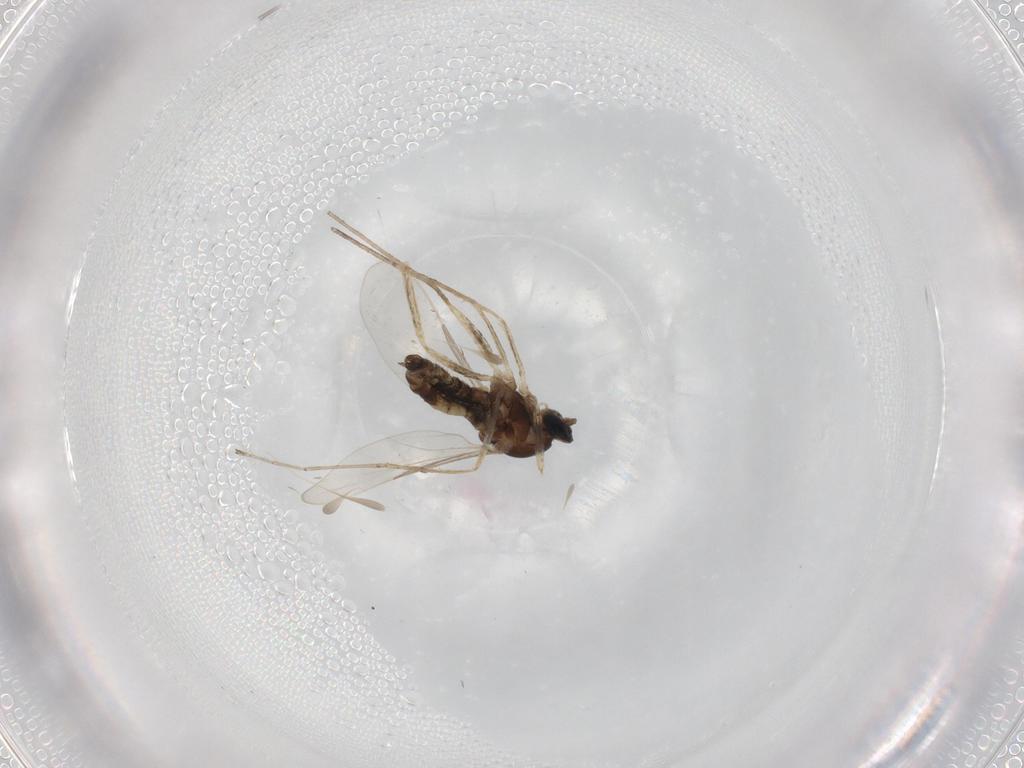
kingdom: Animalia
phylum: Arthropoda
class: Insecta
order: Diptera
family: Cecidomyiidae
